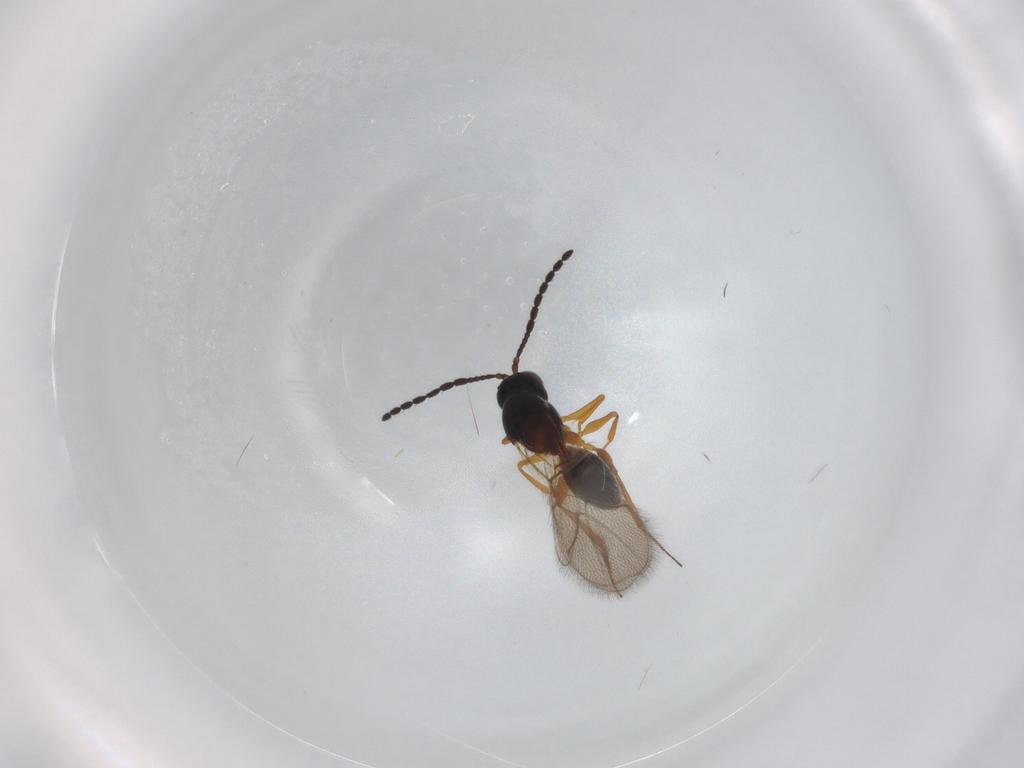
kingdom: Animalia
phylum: Arthropoda
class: Insecta
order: Hymenoptera
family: Figitidae
